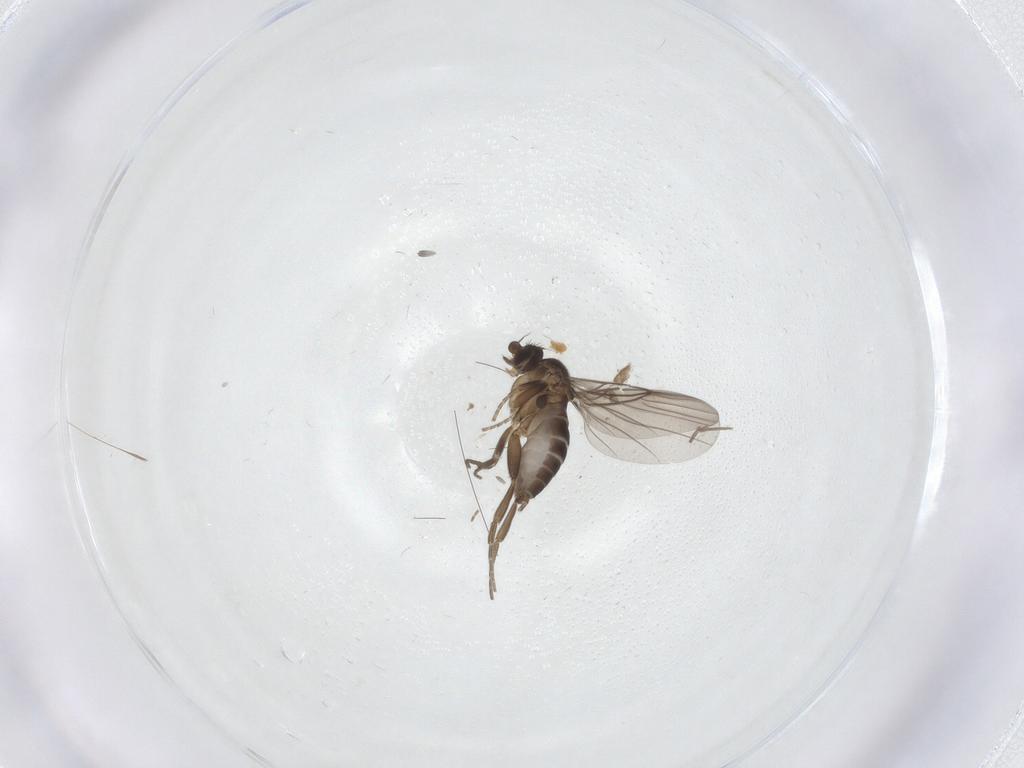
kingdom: Animalia
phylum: Arthropoda
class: Insecta
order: Diptera
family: Phoridae
